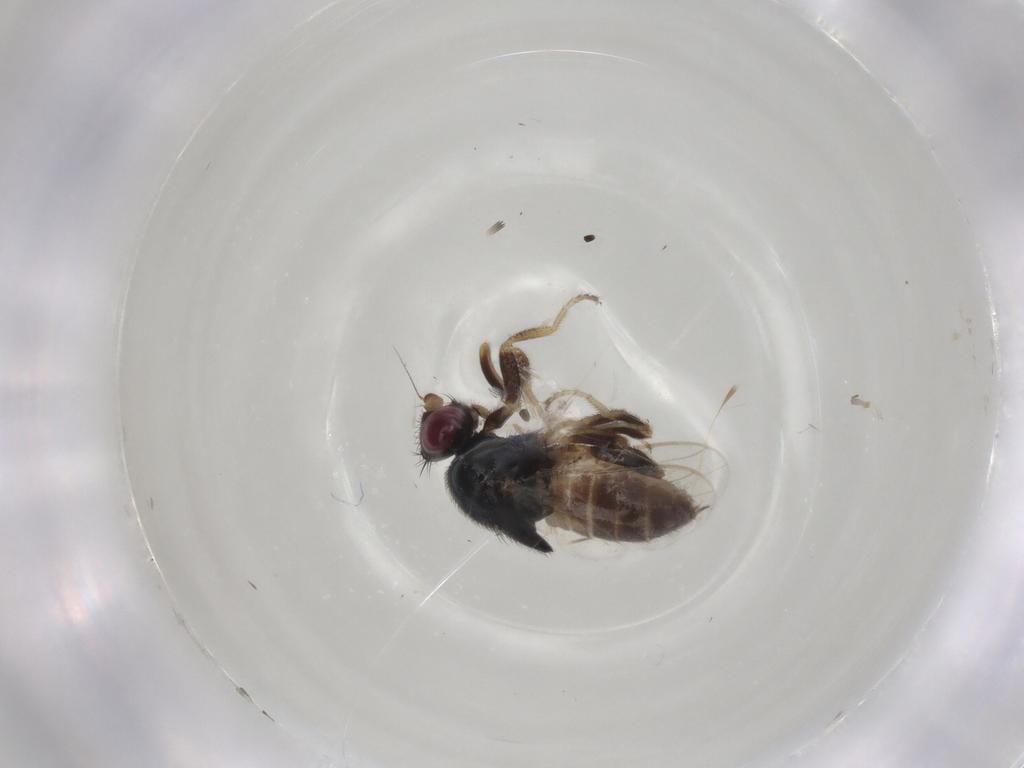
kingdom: Animalia
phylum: Arthropoda
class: Insecta
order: Diptera
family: Chloropidae
